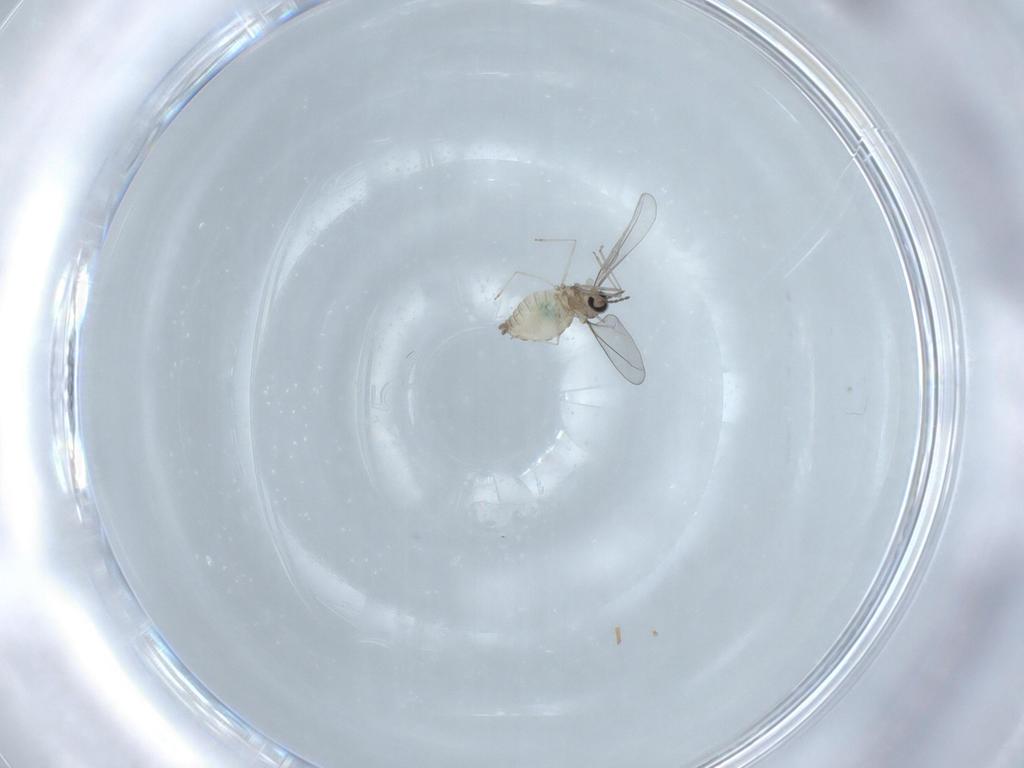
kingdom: Animalia
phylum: Arthropoda
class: Insecta
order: Diptera
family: Cecidomyiidae
